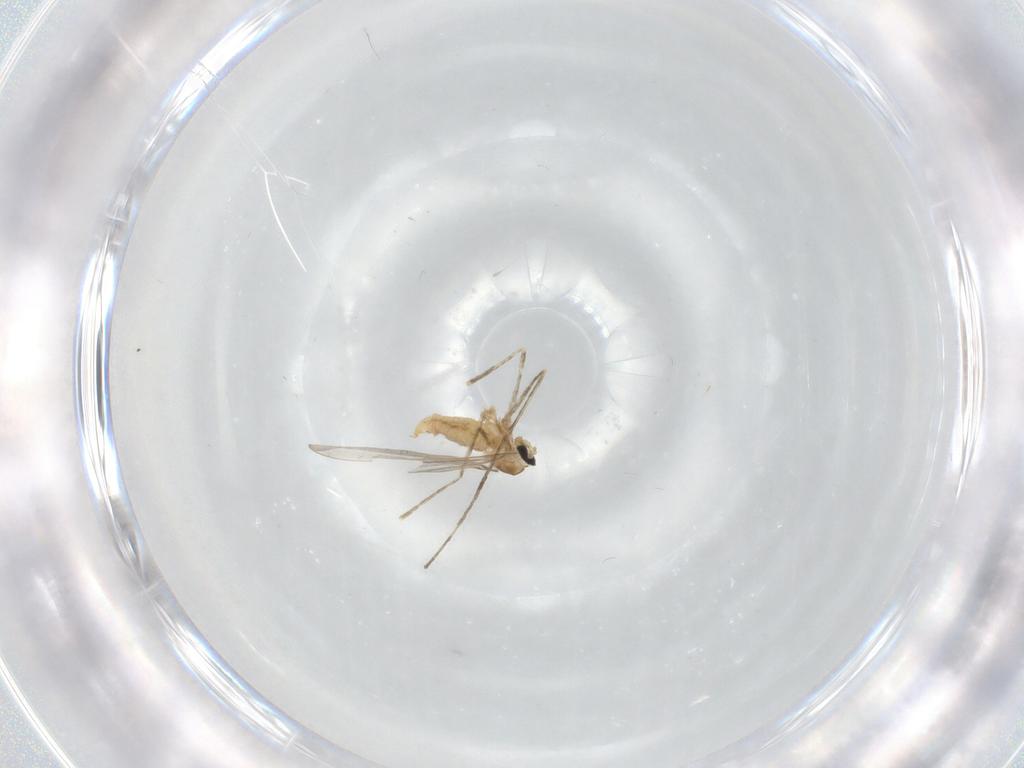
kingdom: Animalia
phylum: Arthropoda
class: Insecta
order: Diptera
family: Cecidomyiidae
